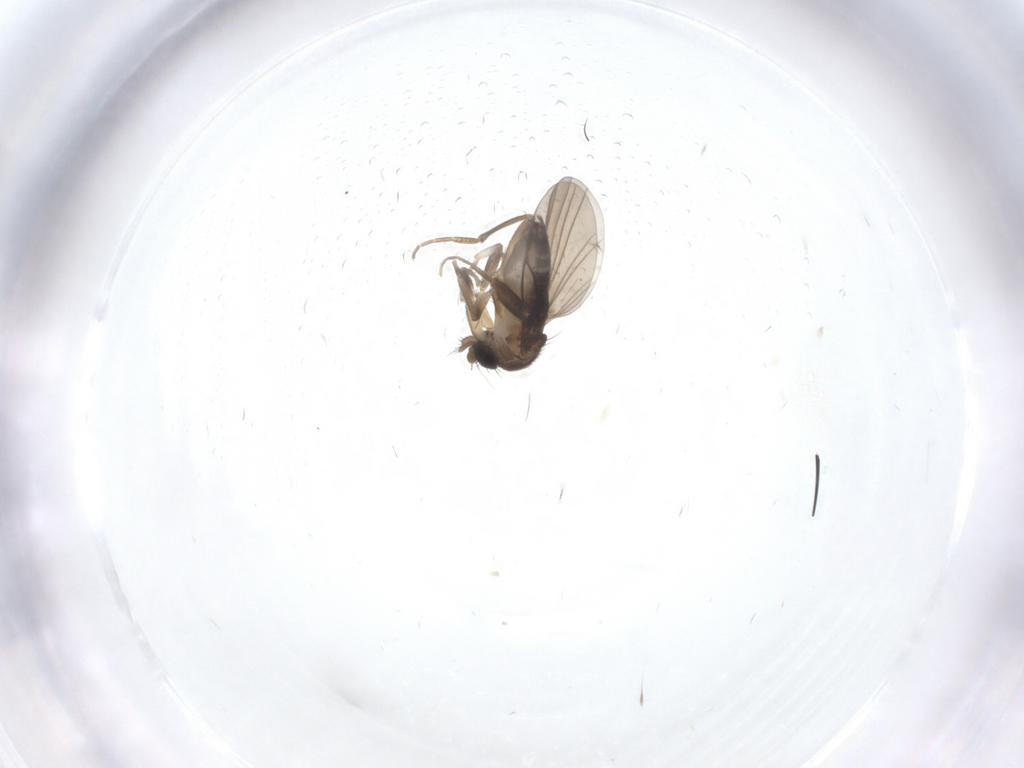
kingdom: Animalia
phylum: Arthropoda
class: Insecta
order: Diptera
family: Phoridae
